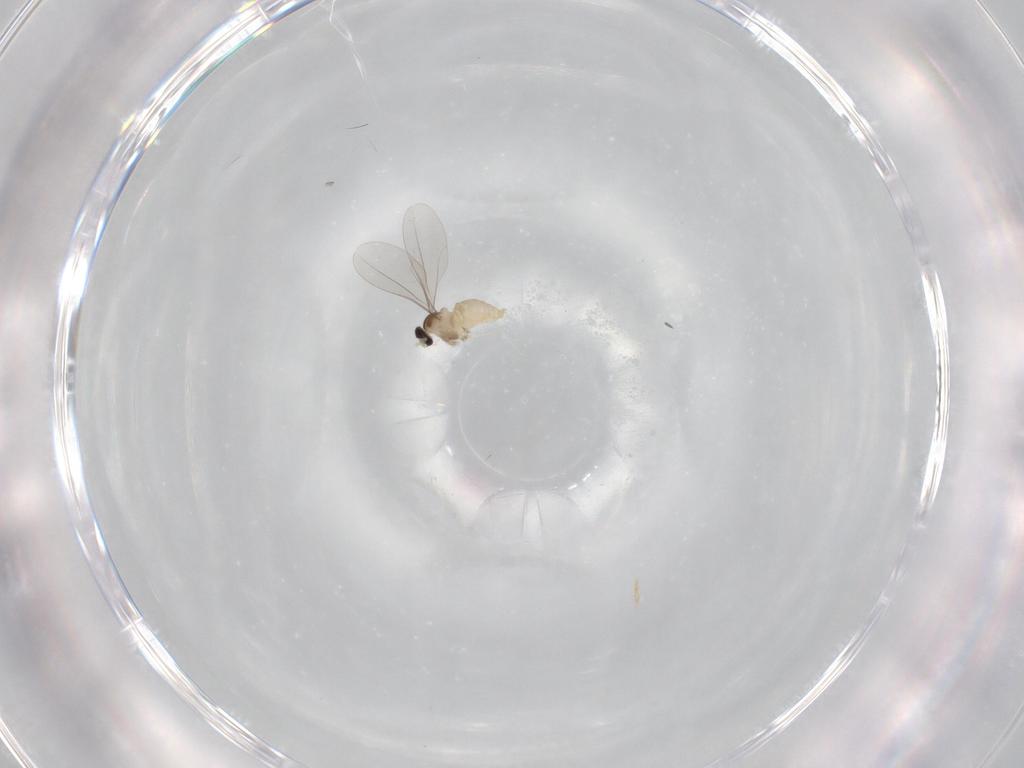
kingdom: Animalia
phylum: Arthropoda
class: Insecta
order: Diptera
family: Cecidomyiidae
